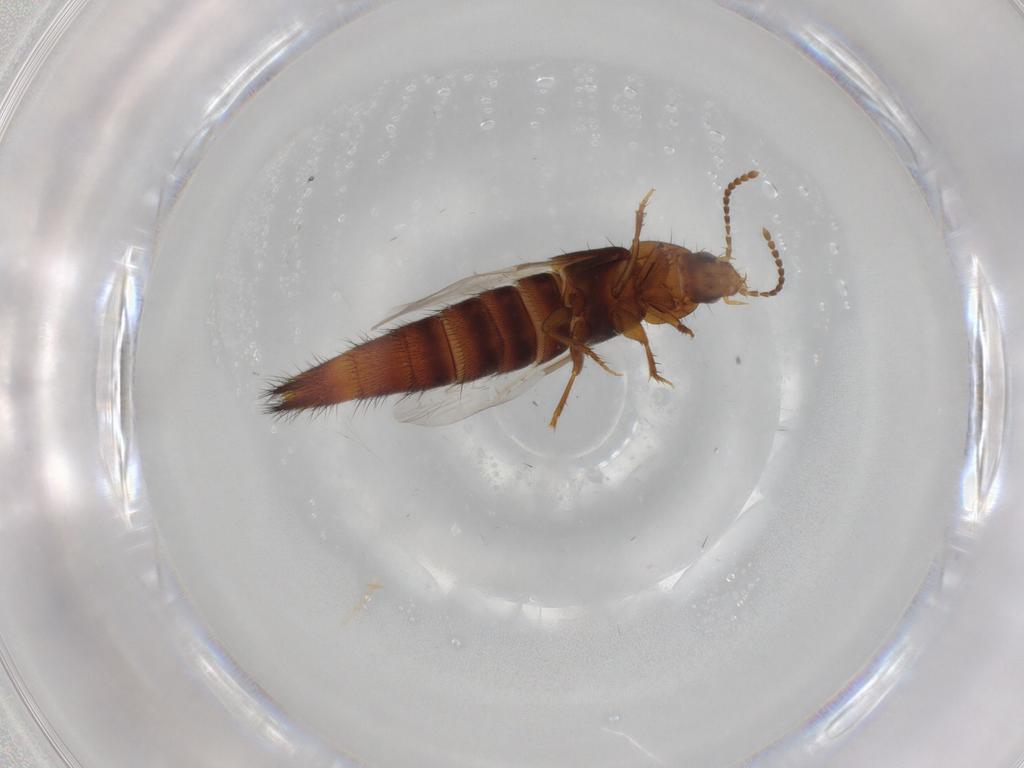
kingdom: Animalia
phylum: Arthropoda
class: Insecta
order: Coleoptera
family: Staphylinidae
